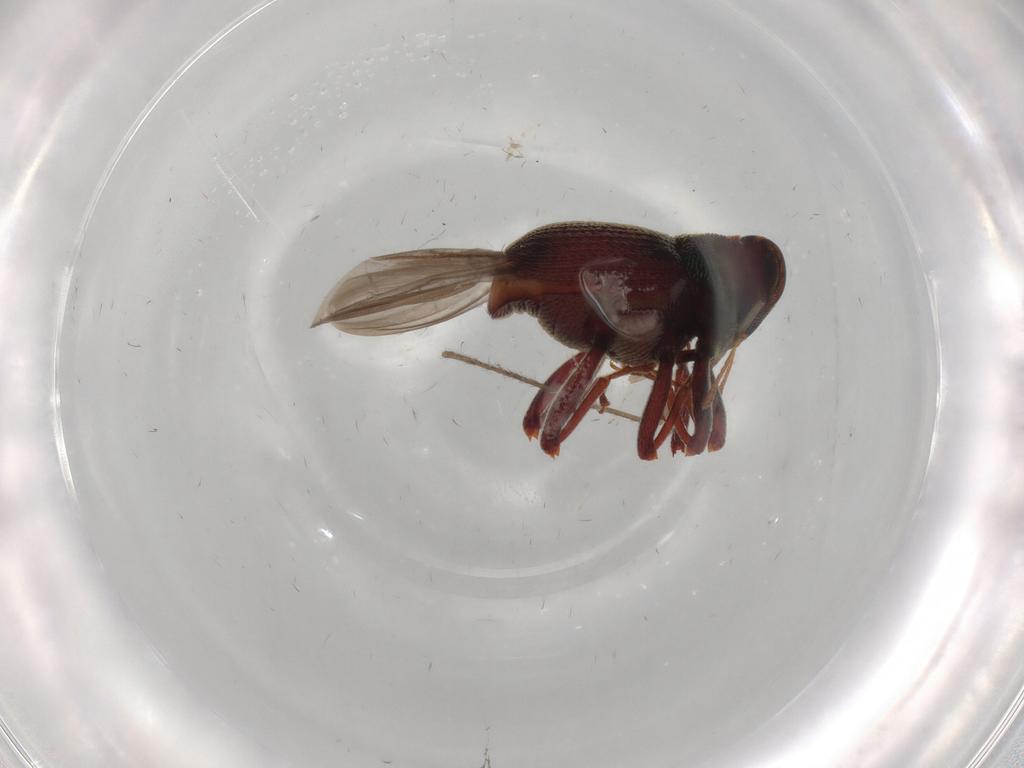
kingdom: Animalia
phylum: Arthropoda
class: Insecta
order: Coleoptera
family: Curculionidae
